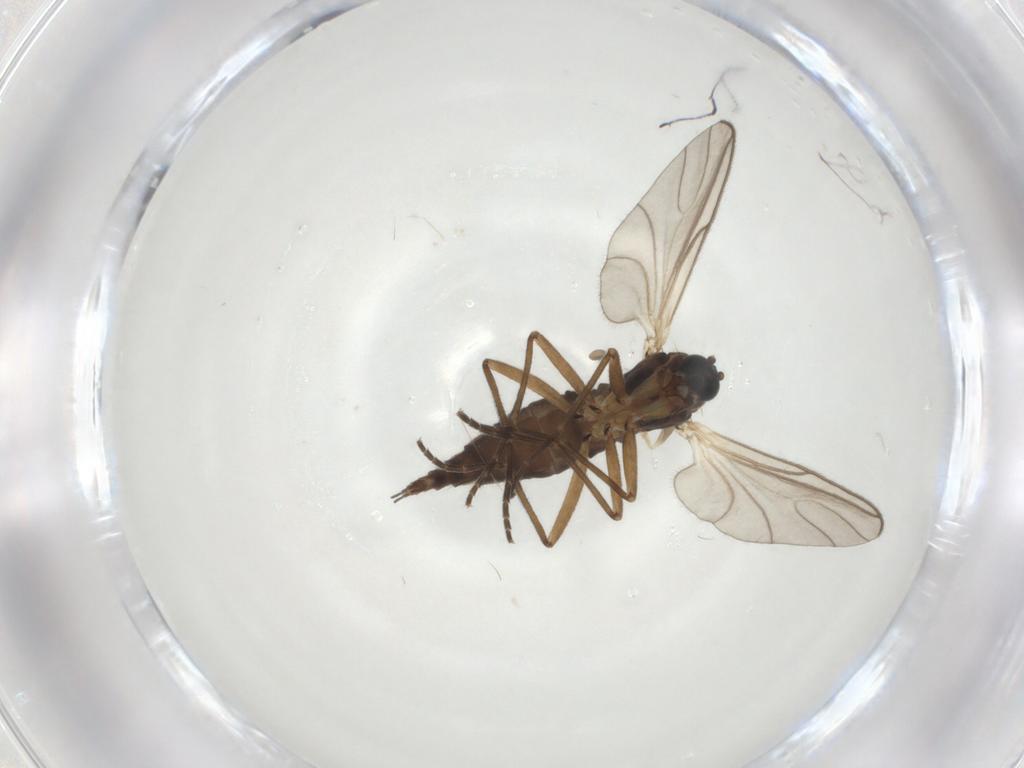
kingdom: Animalia
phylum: Arthropoda
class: Insecta
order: Diptera
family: Sciaridae
